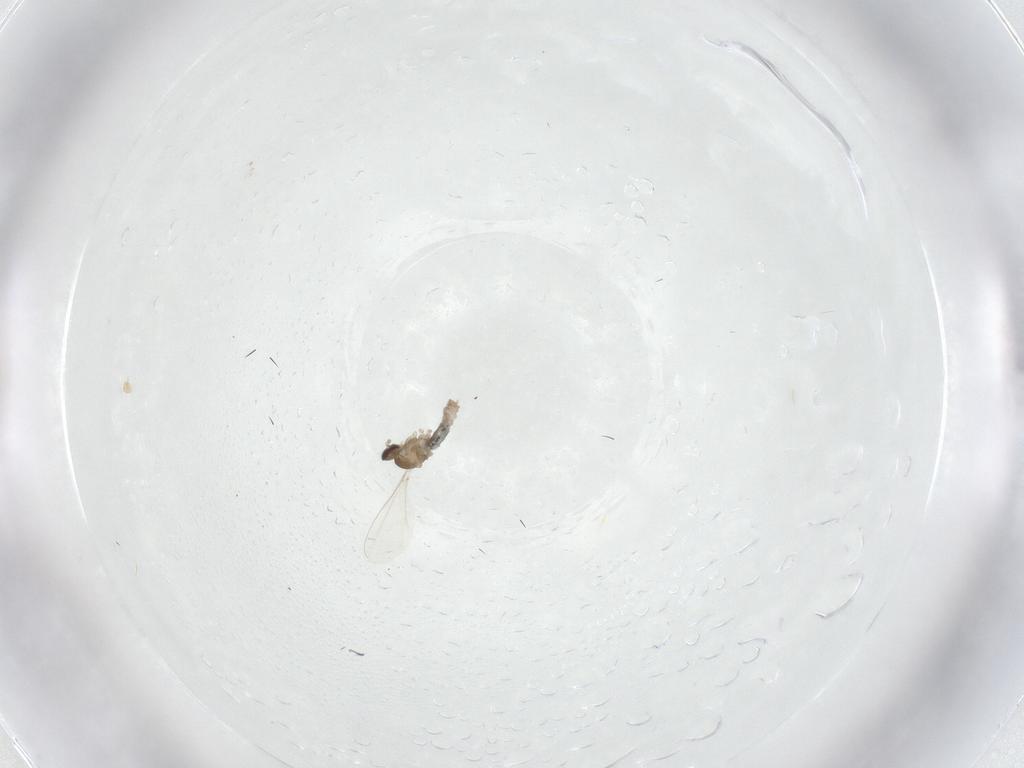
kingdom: Animalia
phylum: Arthropoda
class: Insecta
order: Diptera
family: Cecidomyiidae
